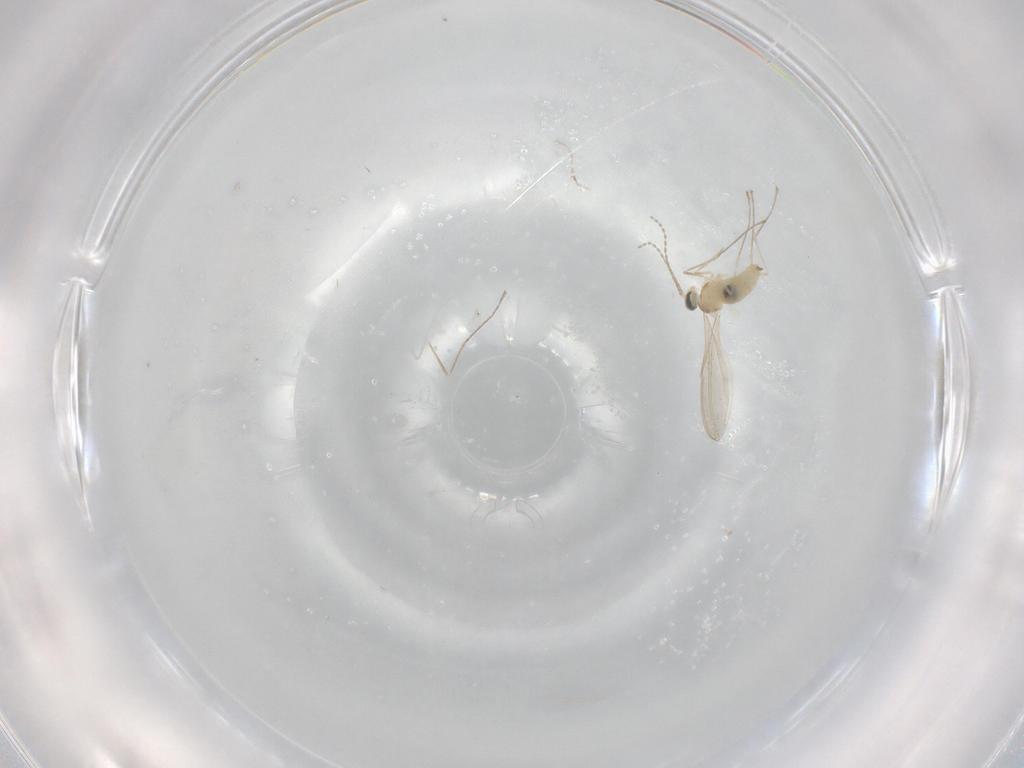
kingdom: Animalia
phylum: Arthropoda
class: Insecta
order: Diptera
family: Cecidomyiidae
